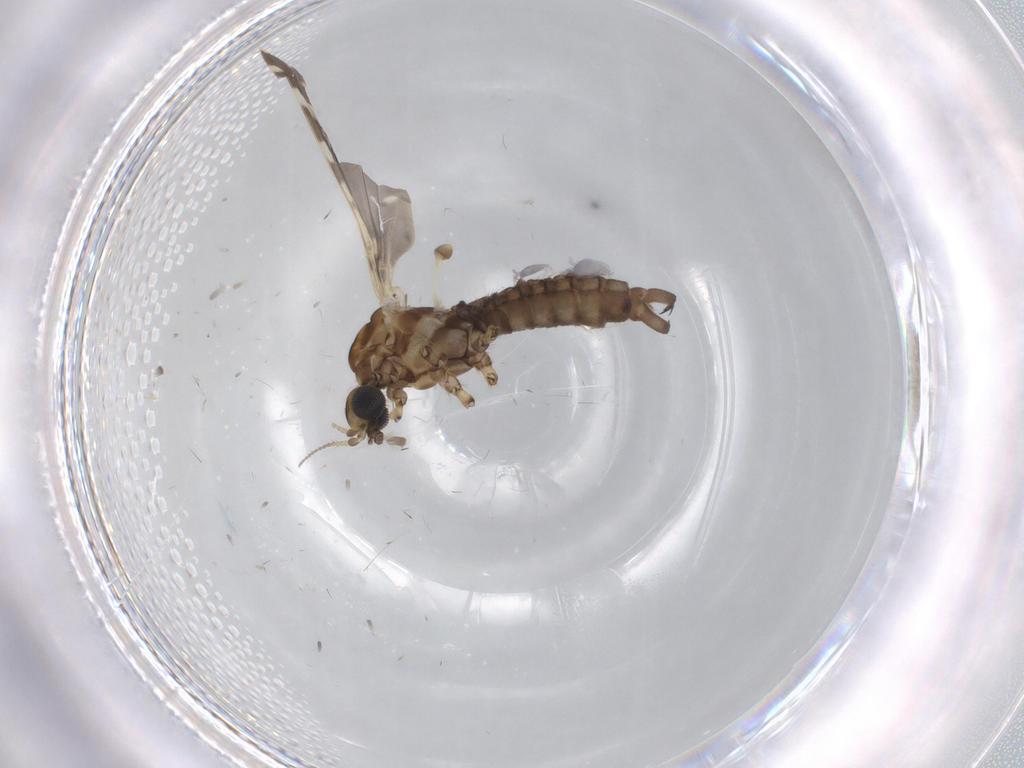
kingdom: Animalia
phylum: Arthropoda
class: Insecta
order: Diptera
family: Limoniidae
